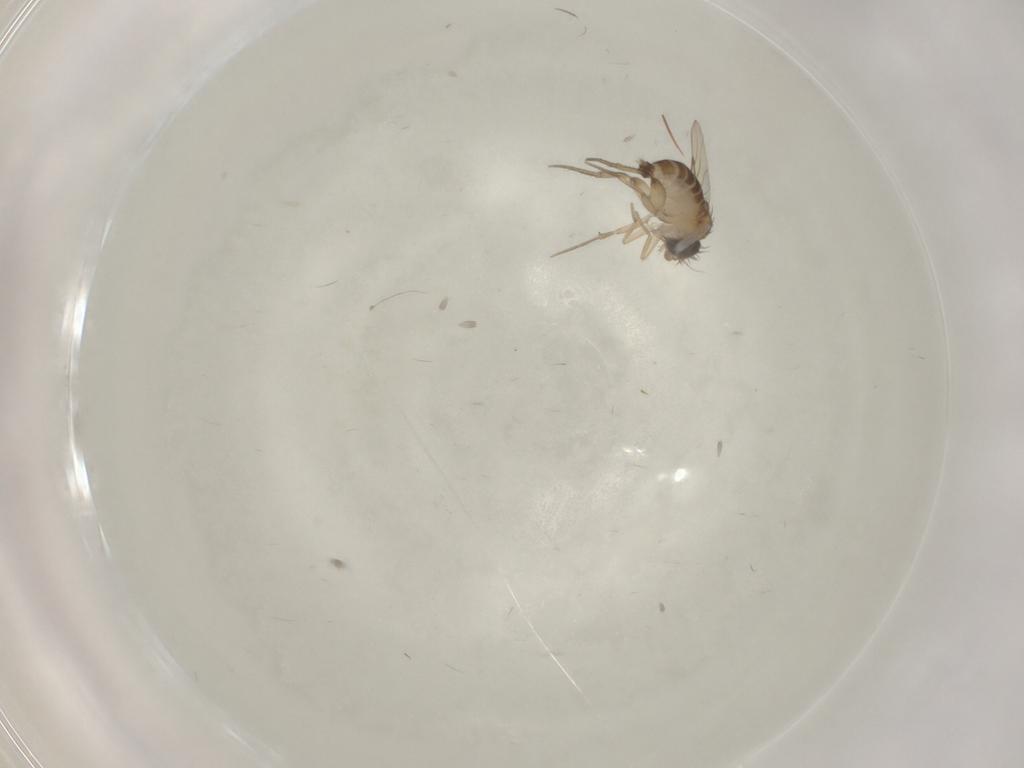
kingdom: Animalia
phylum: Arthropoda
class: Insecta
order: Diptera
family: Phoridae
